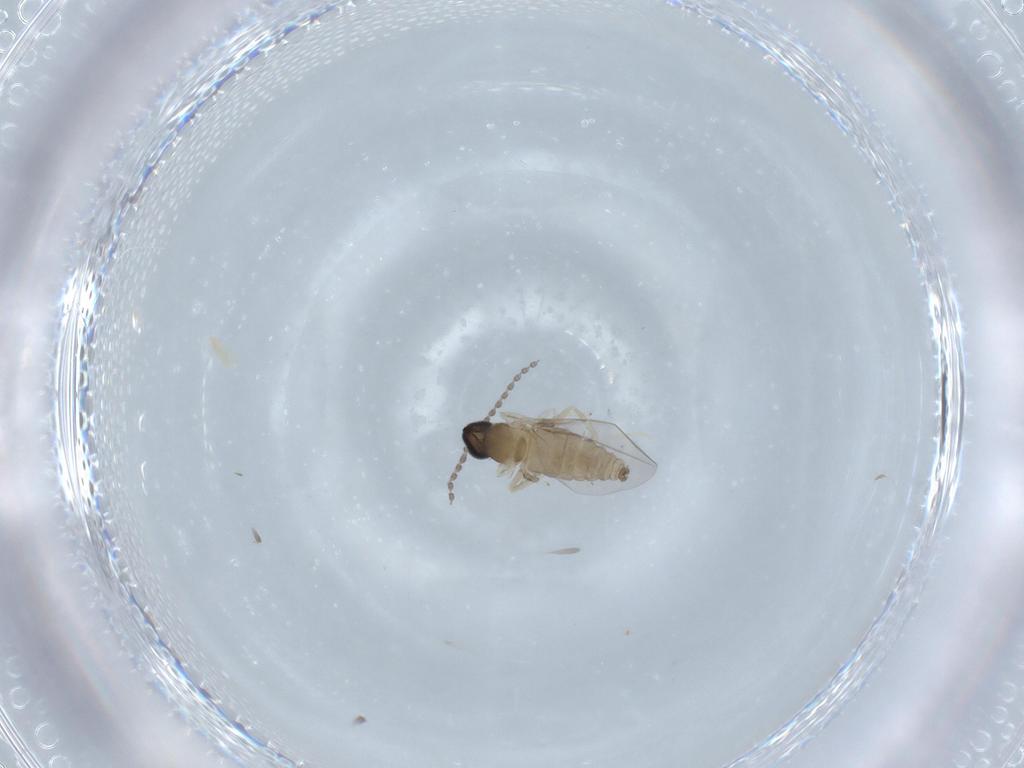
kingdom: Animalia
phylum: Arthropoda
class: Insecta
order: Diptera
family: Cecidomyiidae
